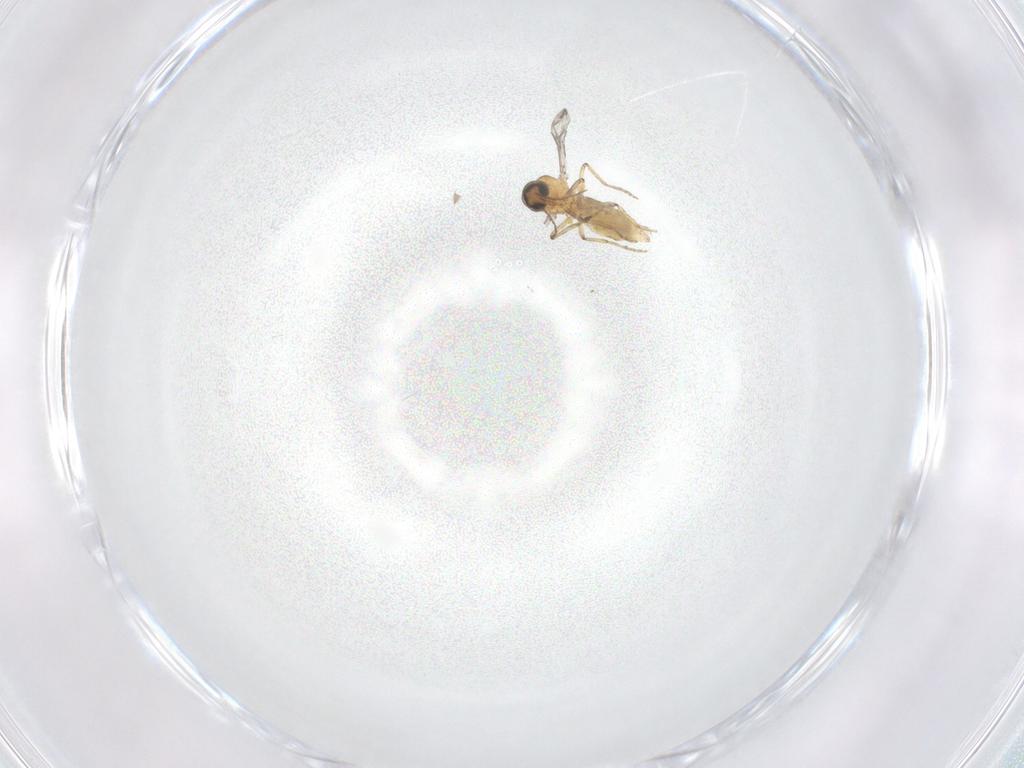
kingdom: Animalia
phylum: Arthropoda
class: Insecta
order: Diptera
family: Ceratopogonidae
